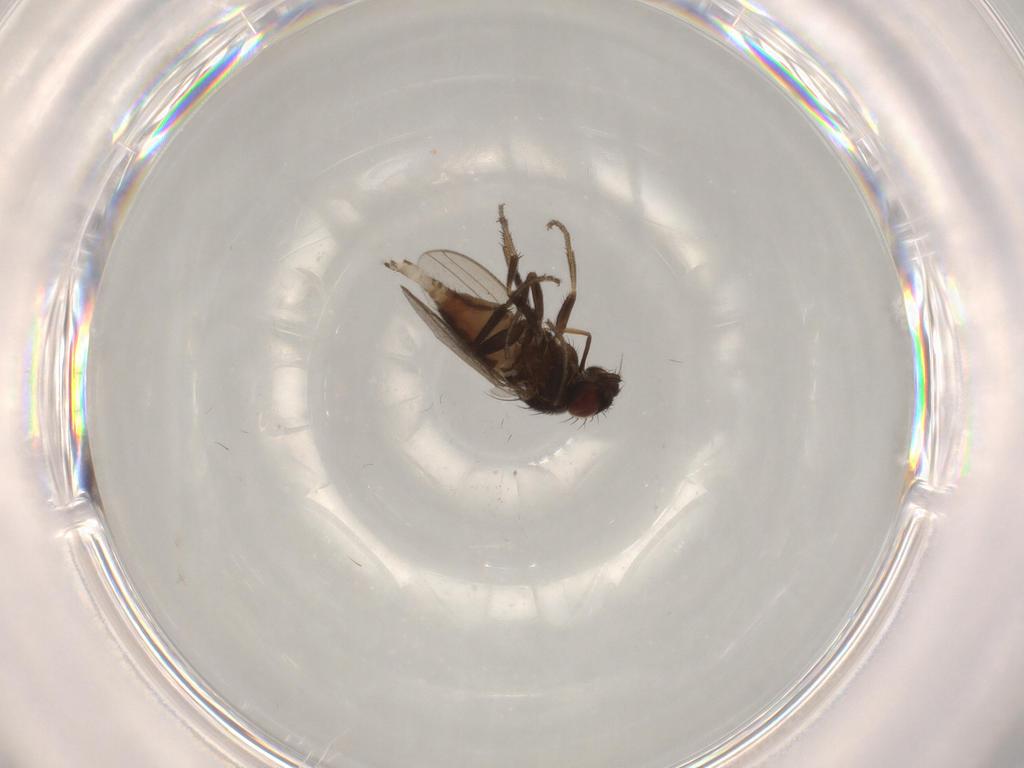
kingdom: Animalia
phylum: Arthropoda
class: Insecta
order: Diptera
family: Milichiidae
